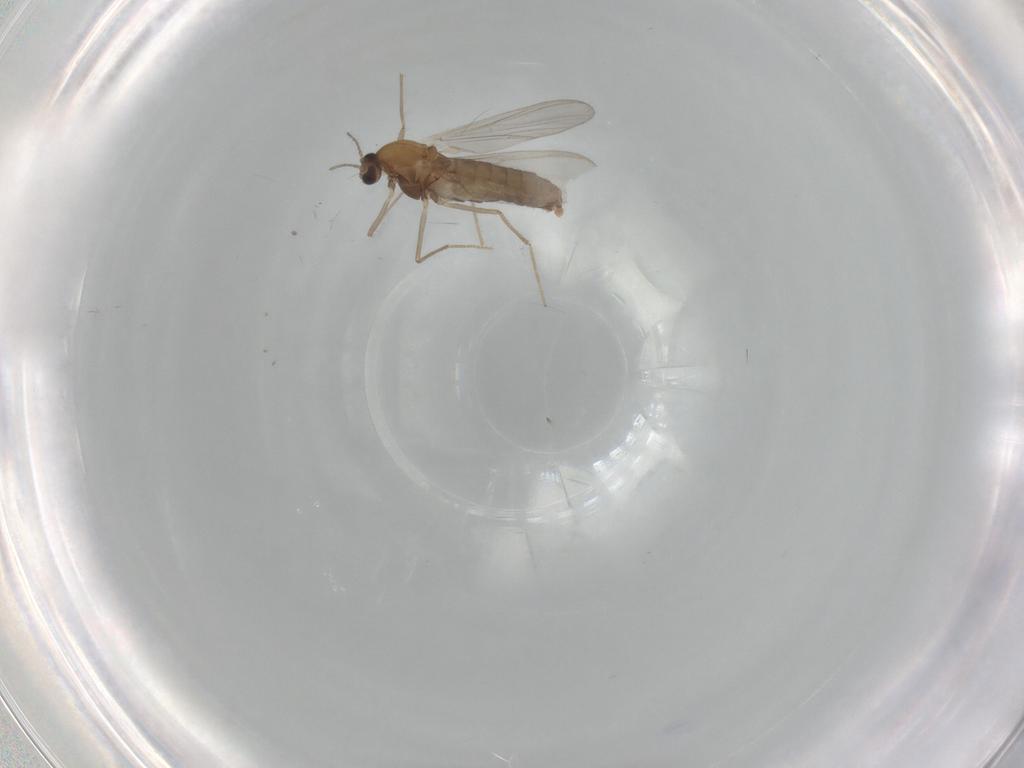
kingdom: Animalia
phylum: Arthropoda
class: Insecta
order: Diptera
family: Chironomidae
